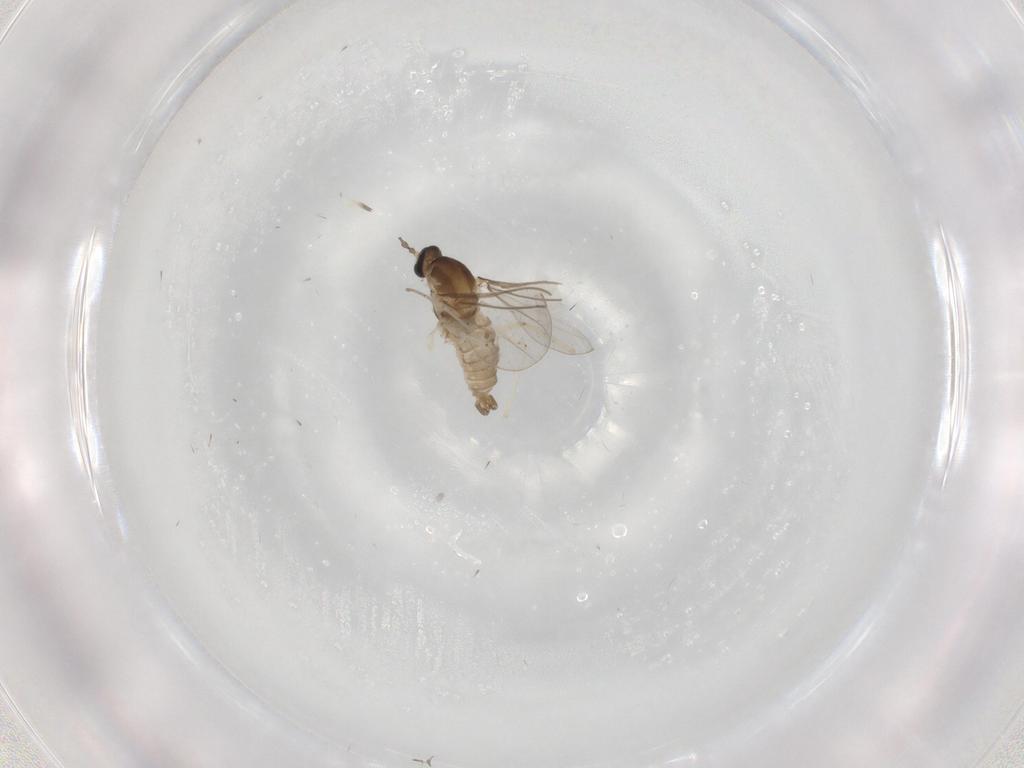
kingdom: Animalia
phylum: Arthropoda
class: Insecta
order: Diptera
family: Cecidomyiidae
